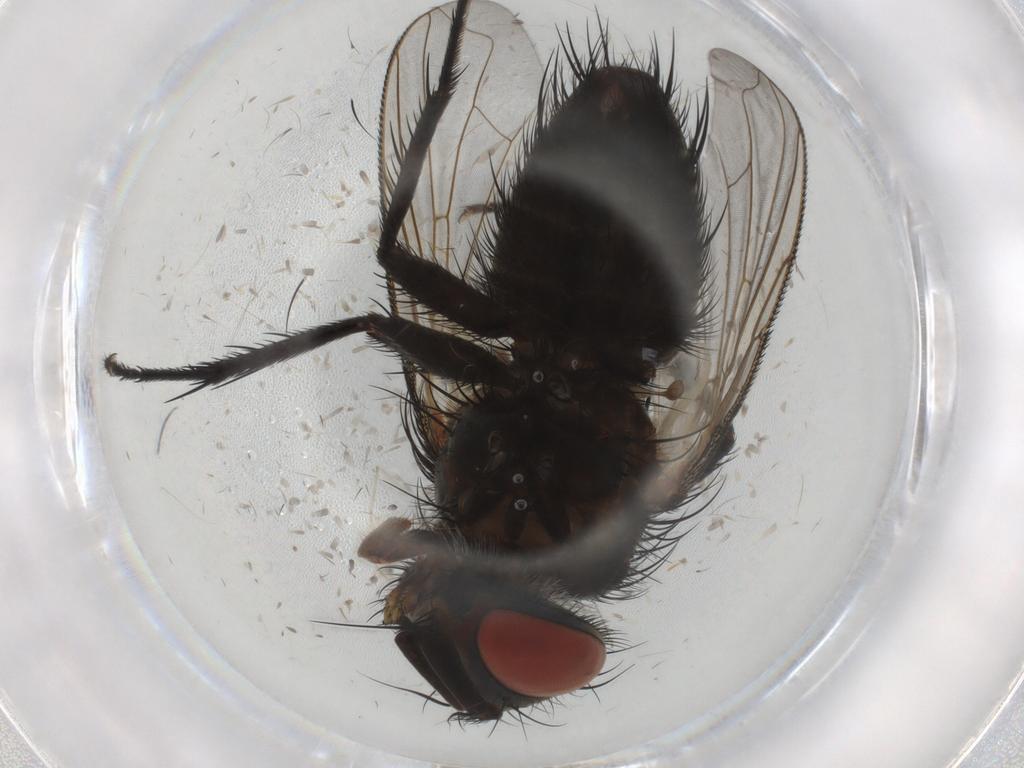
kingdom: Animalia
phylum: Arthropoda
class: Insecta
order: Diptera
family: Tachinidae
